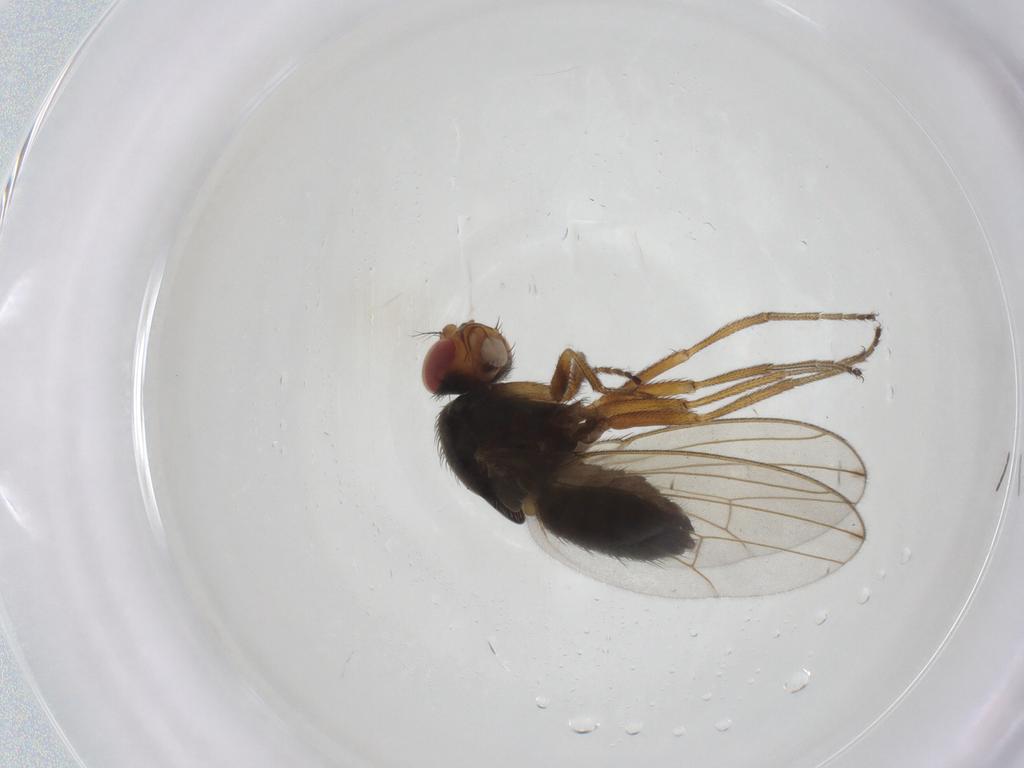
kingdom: Animalia
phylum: Arthropoda
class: Insecta
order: Diptera
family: Drosophilidae
